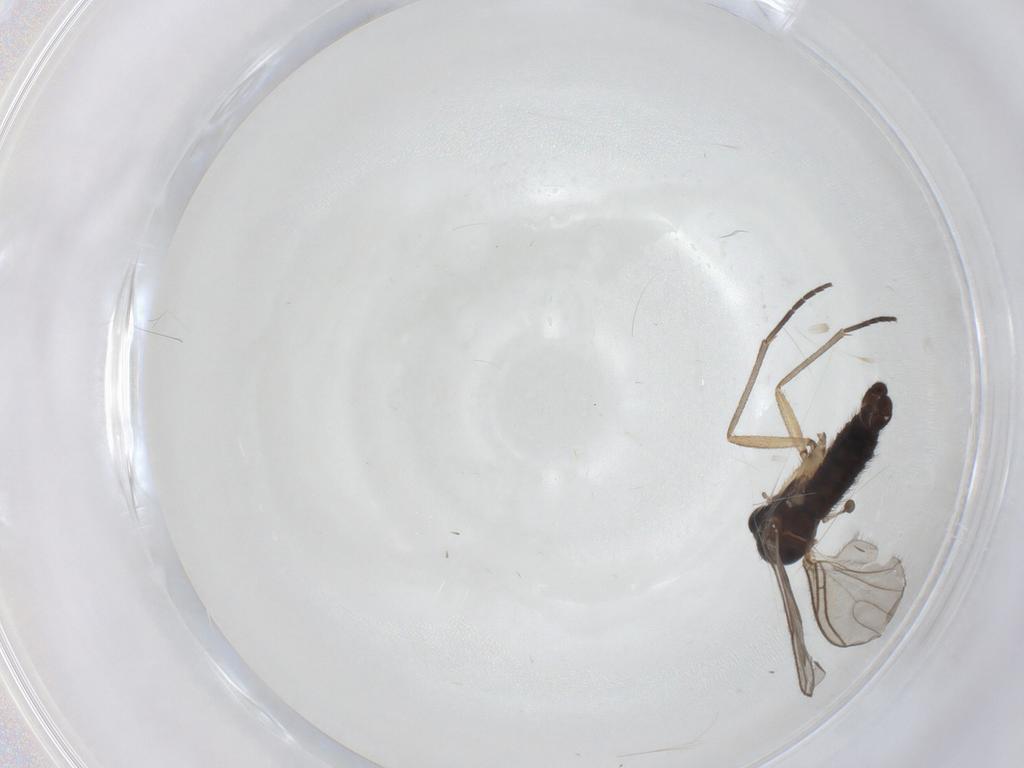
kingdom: Animalia
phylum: Arthropoda
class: Insecta
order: Diptera
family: Sciaridae
